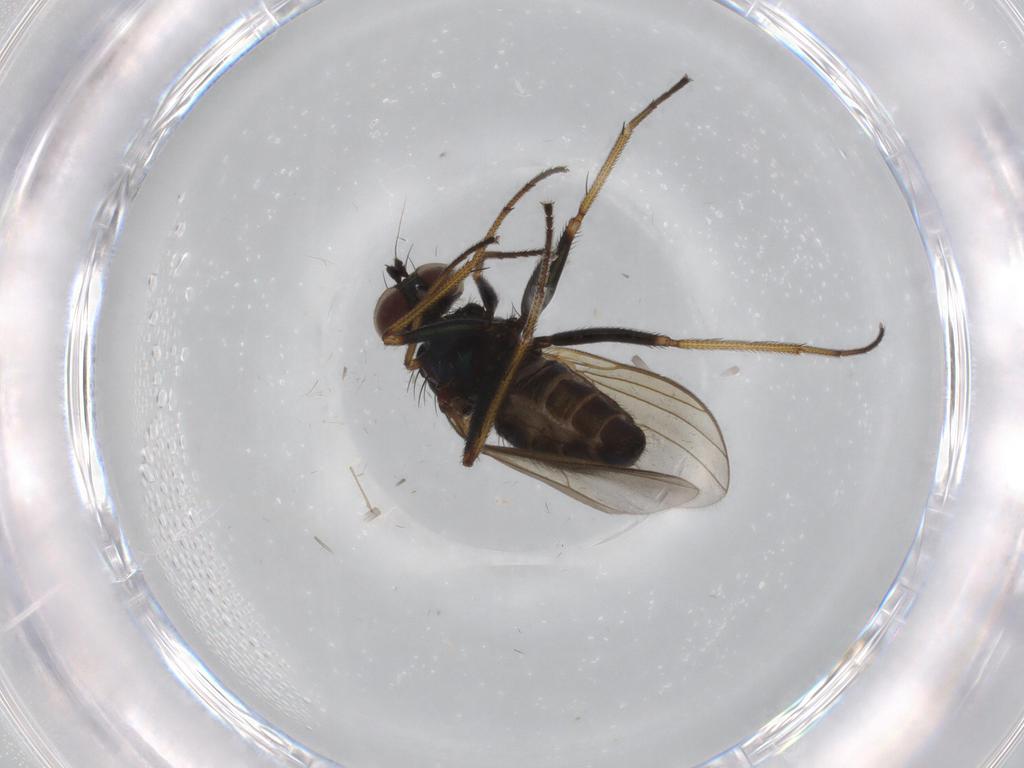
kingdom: Animalia
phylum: Arthropoda
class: Insecta
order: Diptera
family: Dolichopodidae
